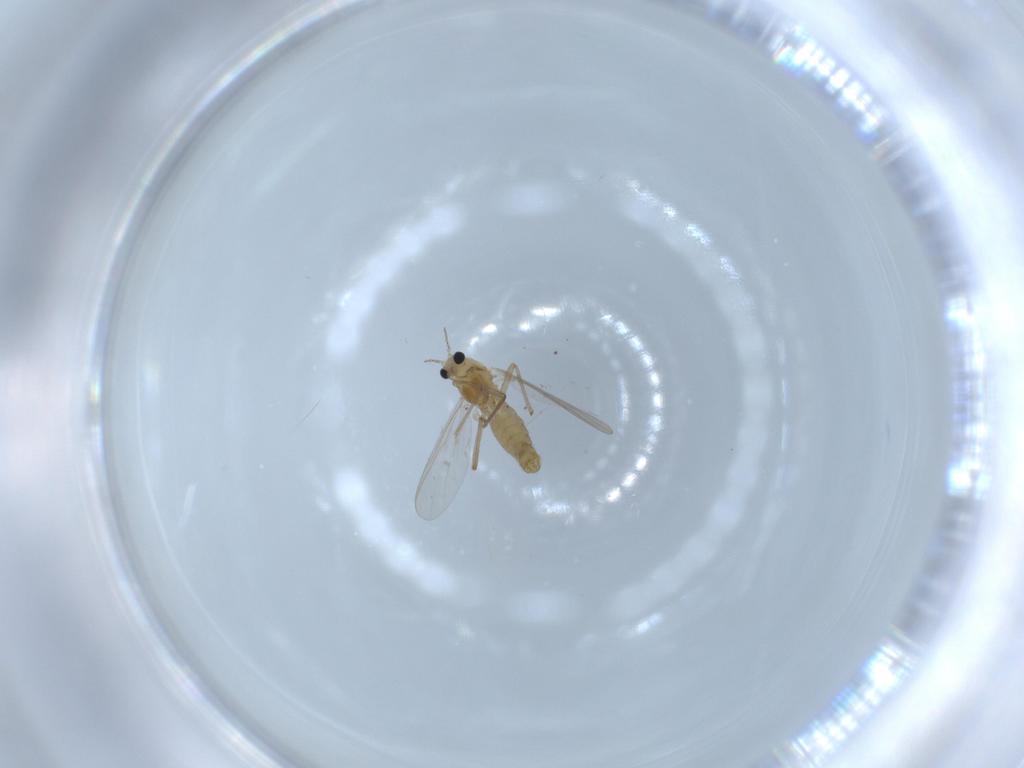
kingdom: Animalia
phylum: Arthropoda
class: Insecta
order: Diptera
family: Chironomidae
